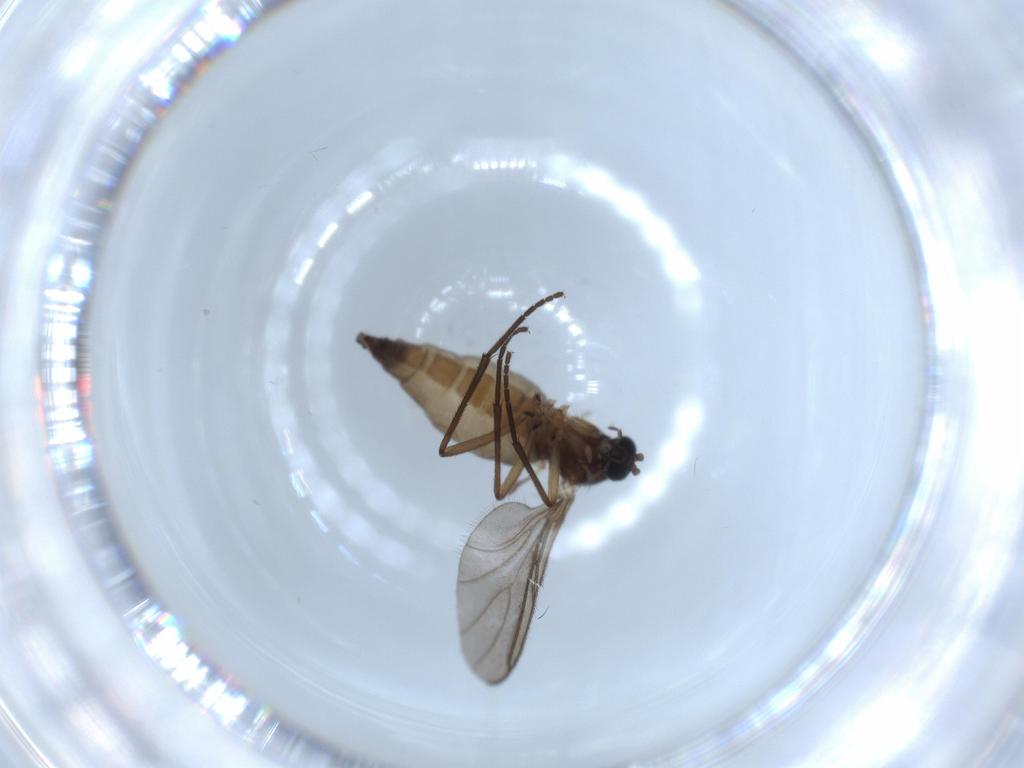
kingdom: Animalia
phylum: Arthropoda
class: Insecta
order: Diptera
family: Sciaridae
